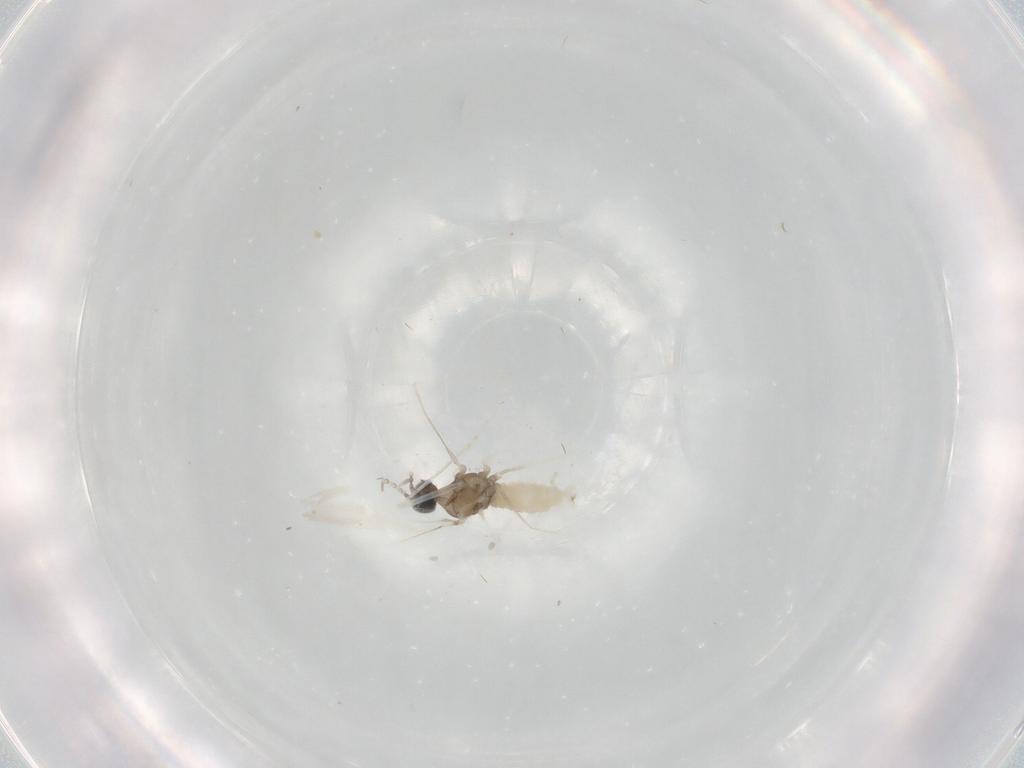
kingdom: Animalia
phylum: Arthropoda
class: Insecta
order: Diptera
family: Cecidomyiidae
